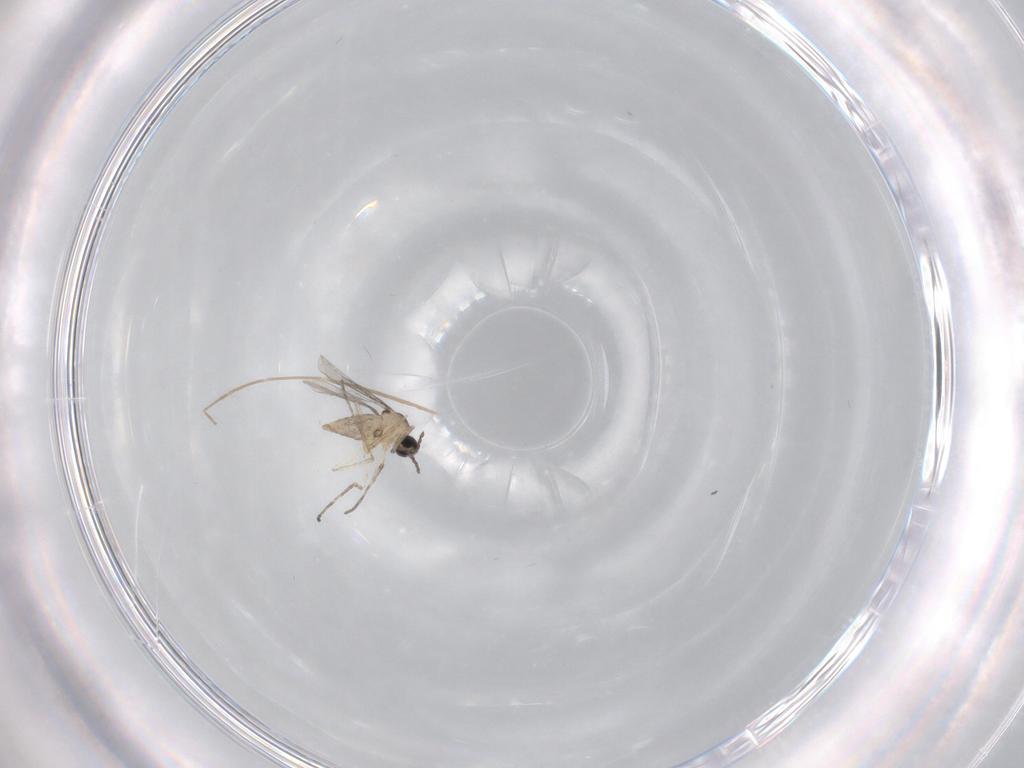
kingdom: Animalia
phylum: Arthropoda
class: Insecta
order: Diptera
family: Cecidomyiidae
